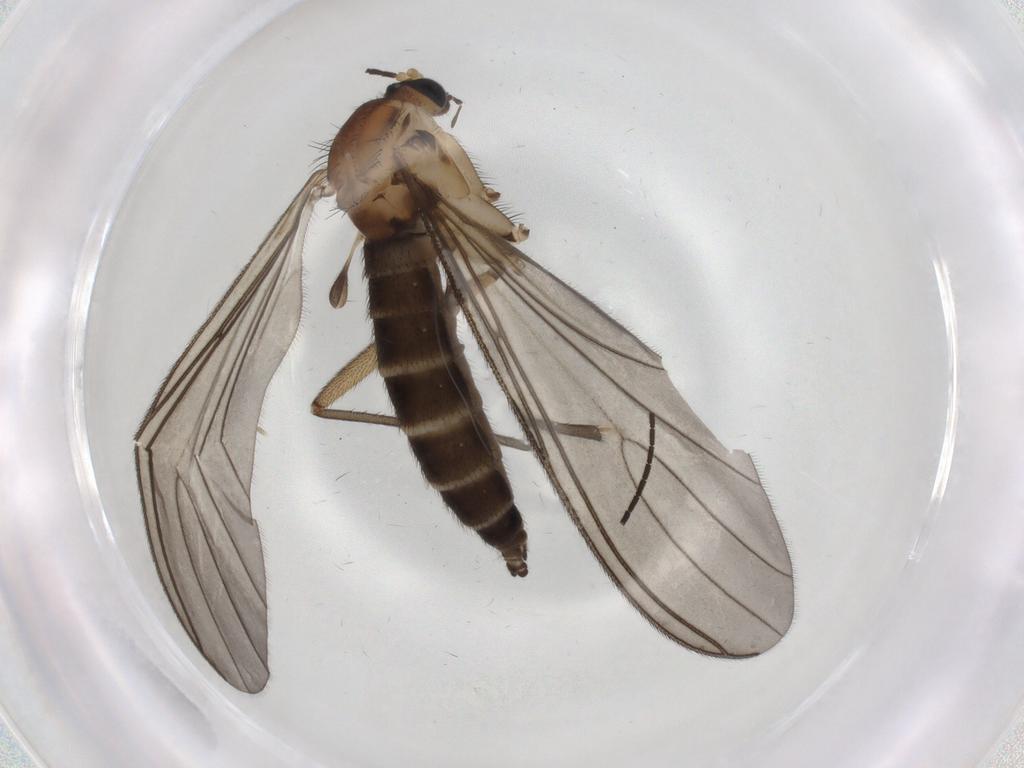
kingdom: Animalia
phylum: Arthropoda
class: Insecta
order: Diptera
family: Sciaridae
